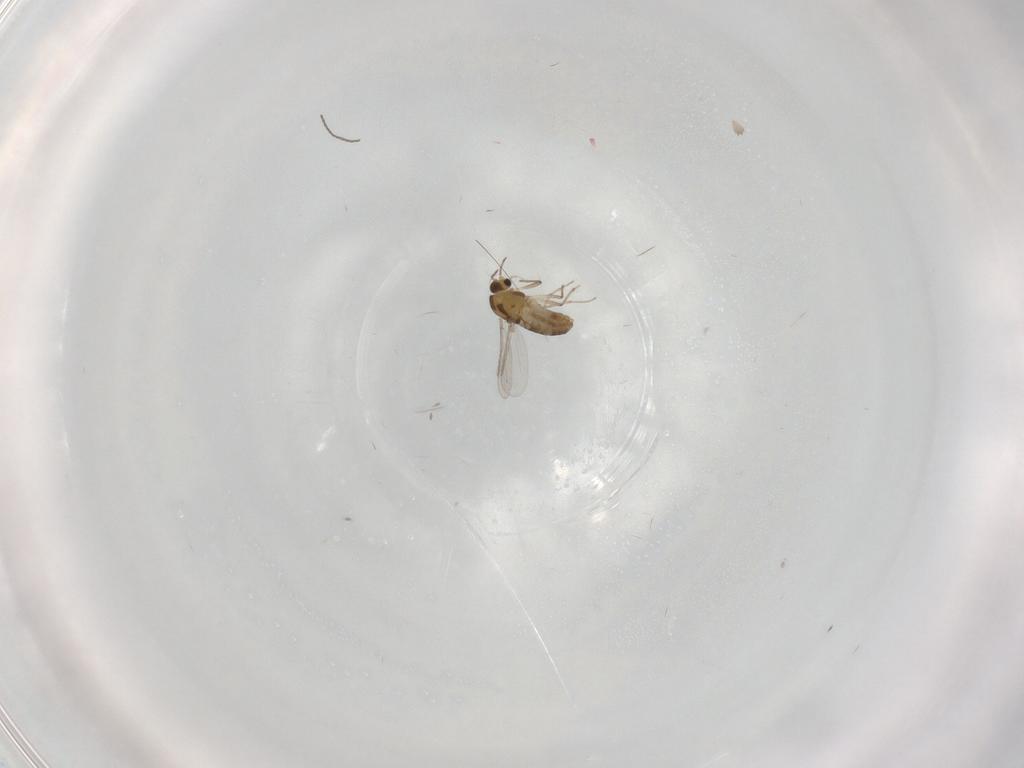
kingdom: Animalia
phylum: Arthropoda
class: Insecta
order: Diptera
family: Chironomidae
